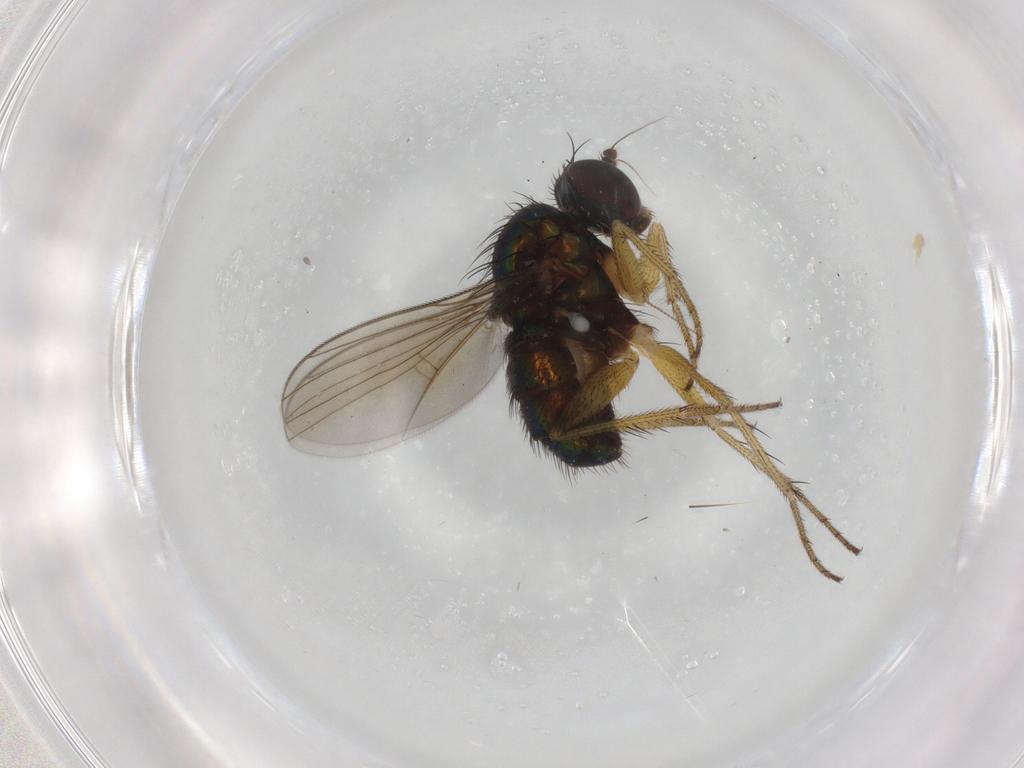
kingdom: Animalia
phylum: Arthropoda
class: Insecta
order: Diptera
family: Dolichopodidae
